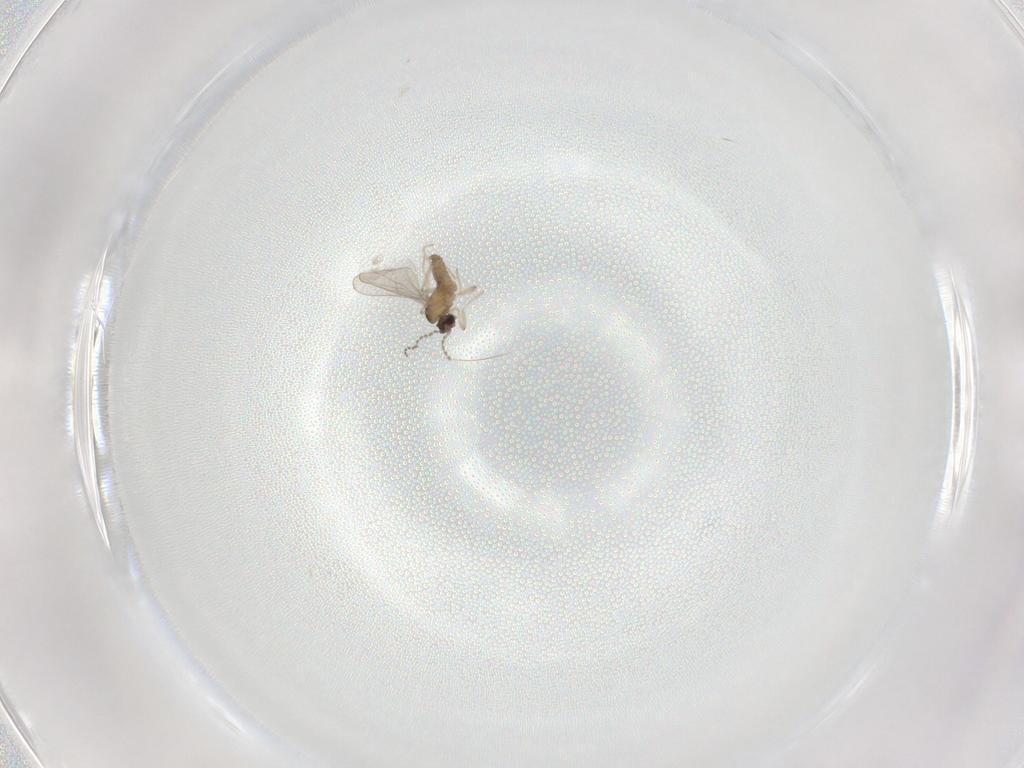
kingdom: Animalia
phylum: Arthropoda
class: Insecta
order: Diptera
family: Cecidomyiidae
